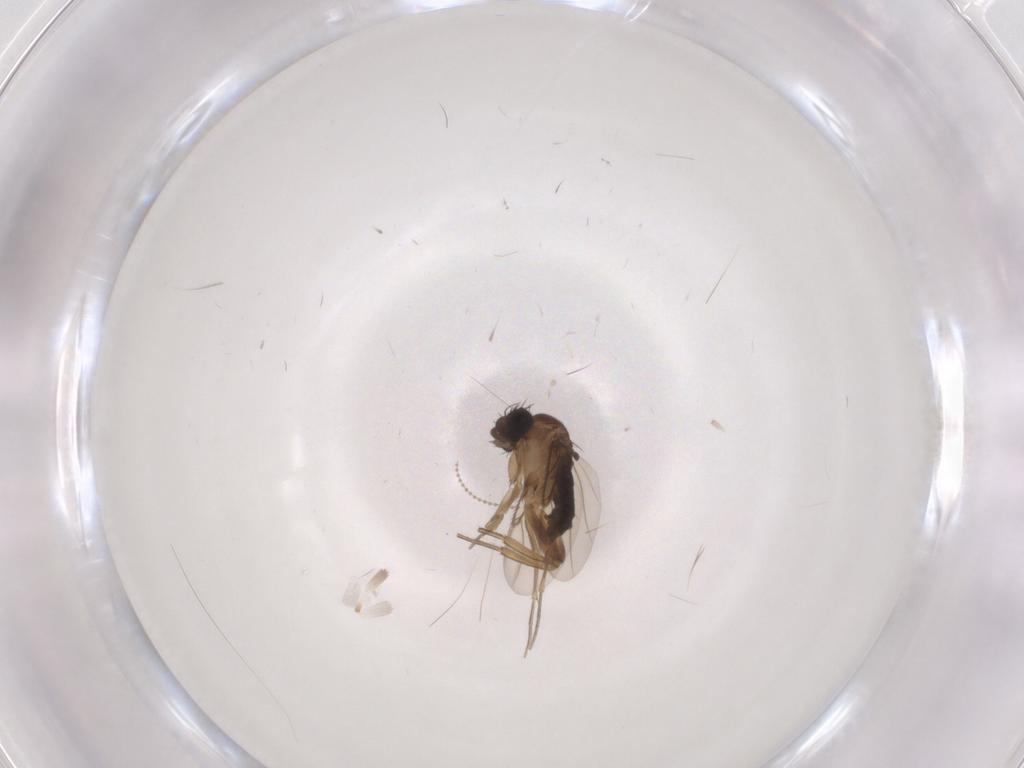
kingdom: Animalia
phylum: Arthropoda
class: Insecta
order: Diptera
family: Cecidomyiidae
